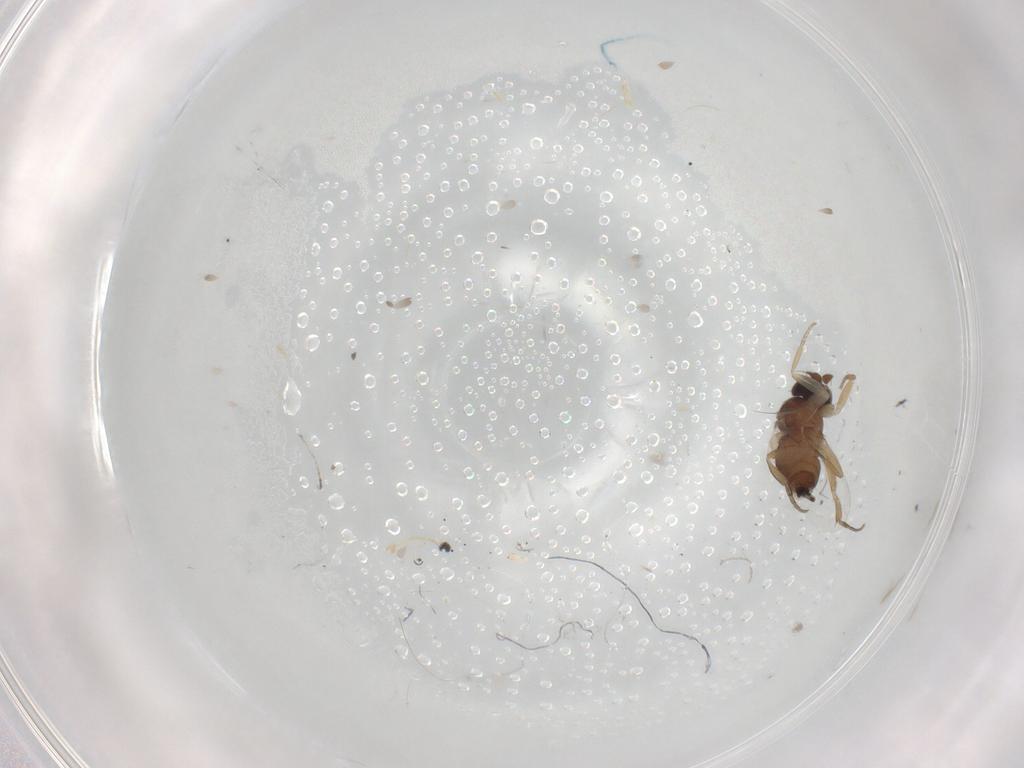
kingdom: Animalia
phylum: Arthropoda
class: Insecta
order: Diptera
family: Phoridae
